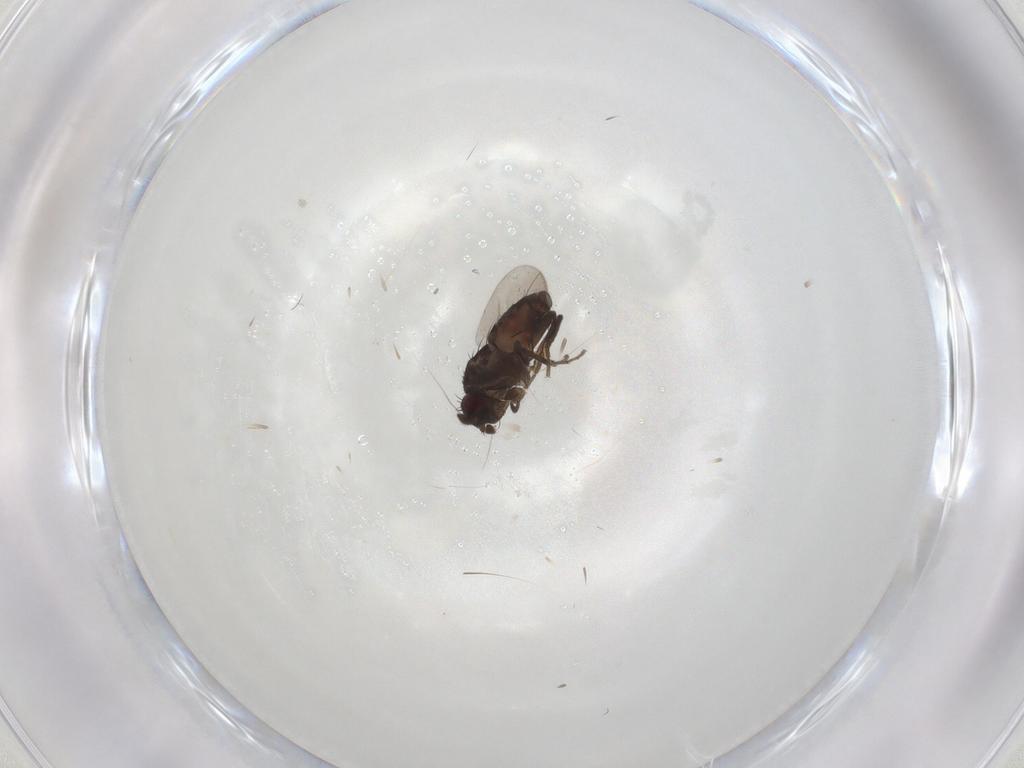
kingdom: Animalia
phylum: Arthropoda
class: Insecta
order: Diptera
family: Sphaeroceridae
